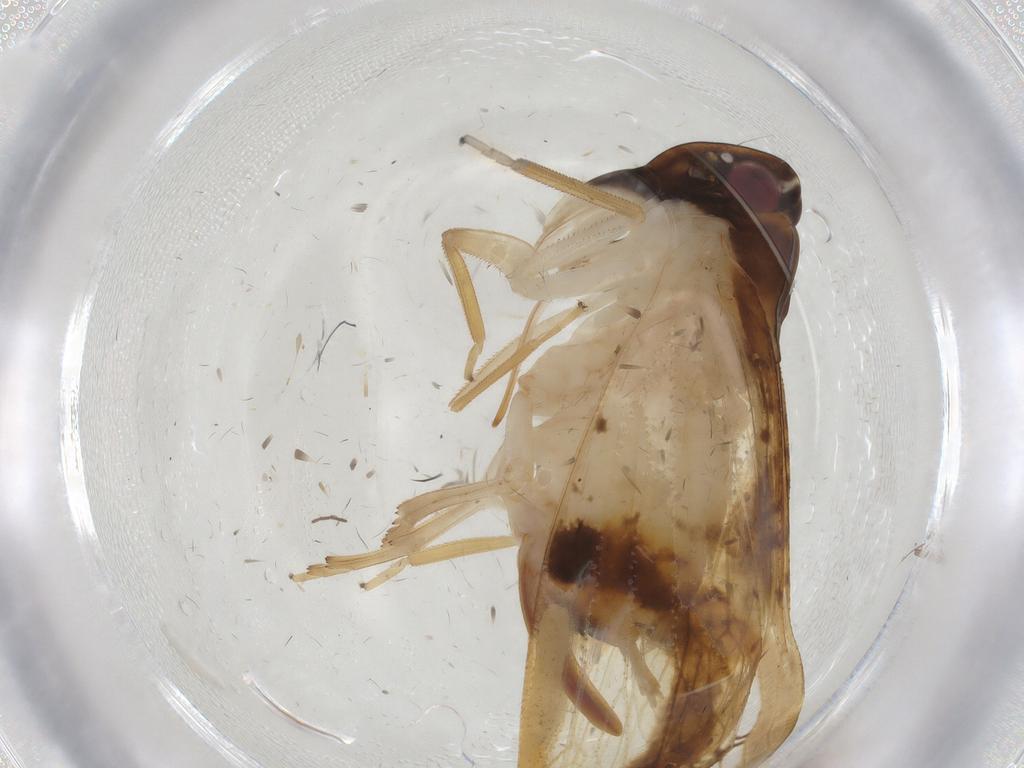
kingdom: Animalia
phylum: Arthropoda
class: Insecta
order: Hemiptera
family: Cixiidae
